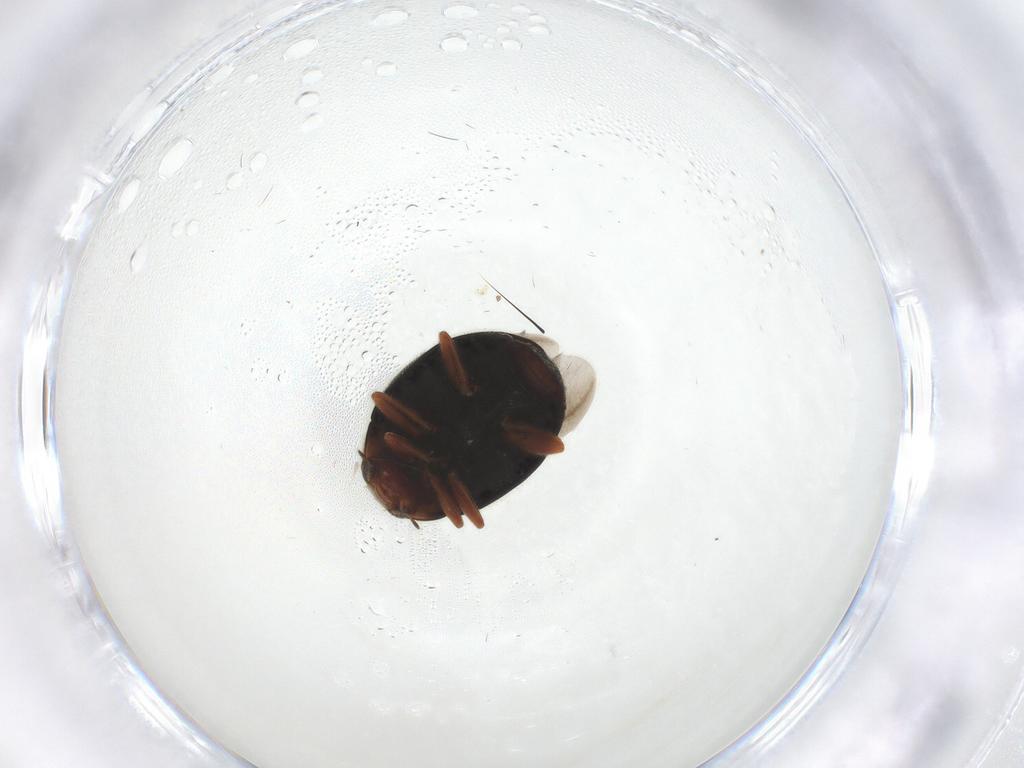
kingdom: Animalia
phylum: Arthropoda
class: Insecta
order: Coleoptera
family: Coccinellidae
